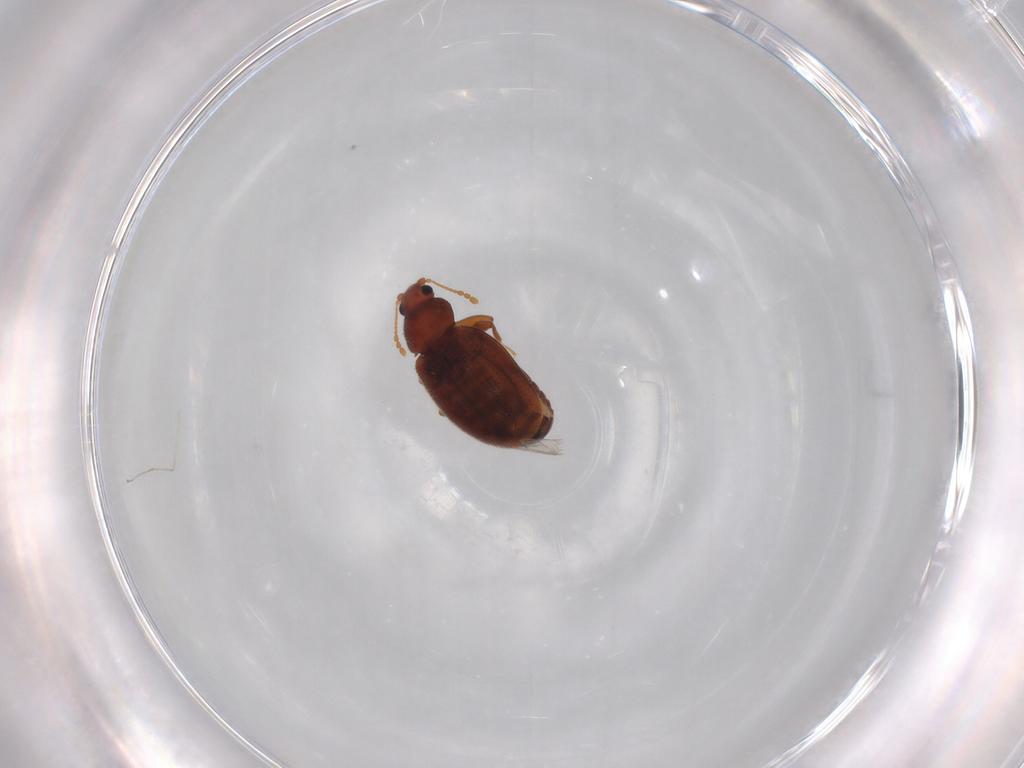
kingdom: Animalia
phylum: Arthropoda
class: Insecta
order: Coleoptera
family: Latridiidae
